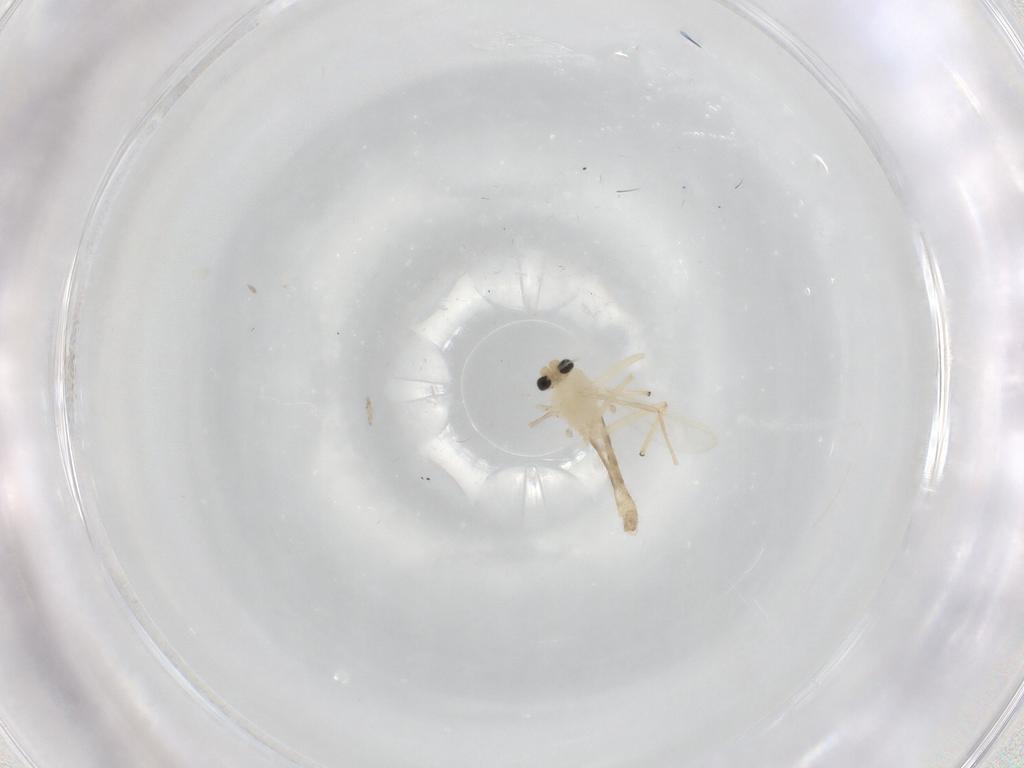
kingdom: Animalia
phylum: Arthropoda
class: Insecta
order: Diptera
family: Chironomidae
